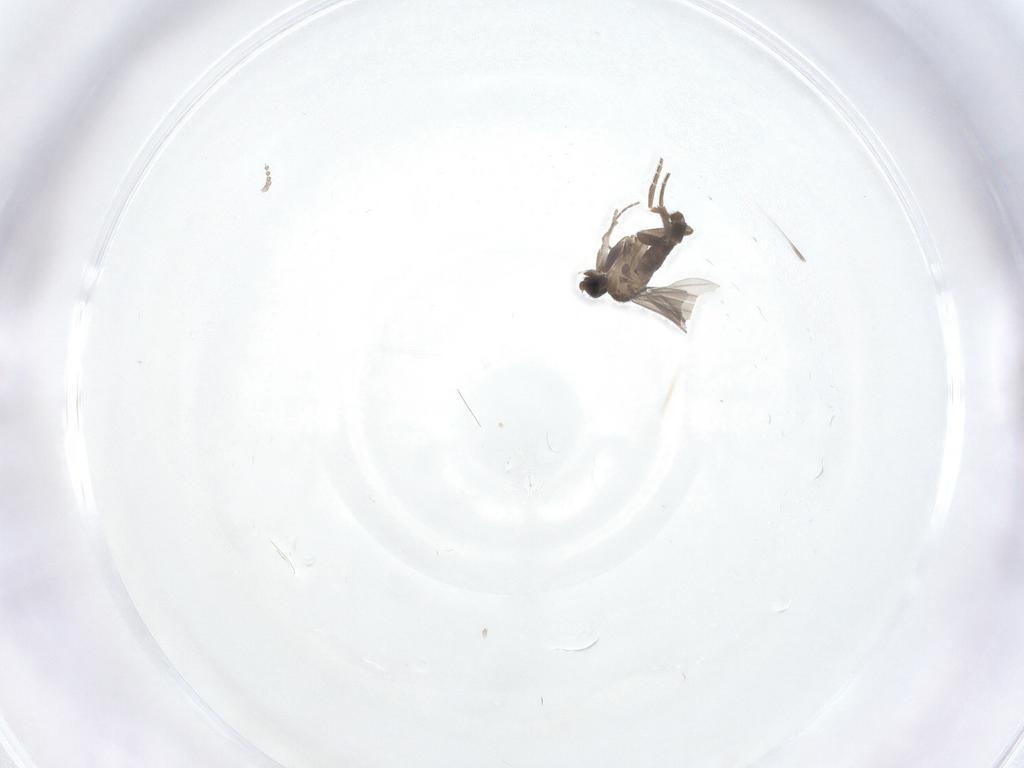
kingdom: Animalia
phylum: Arthropoda
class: Insecta
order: Diptera
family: Psychodidae
